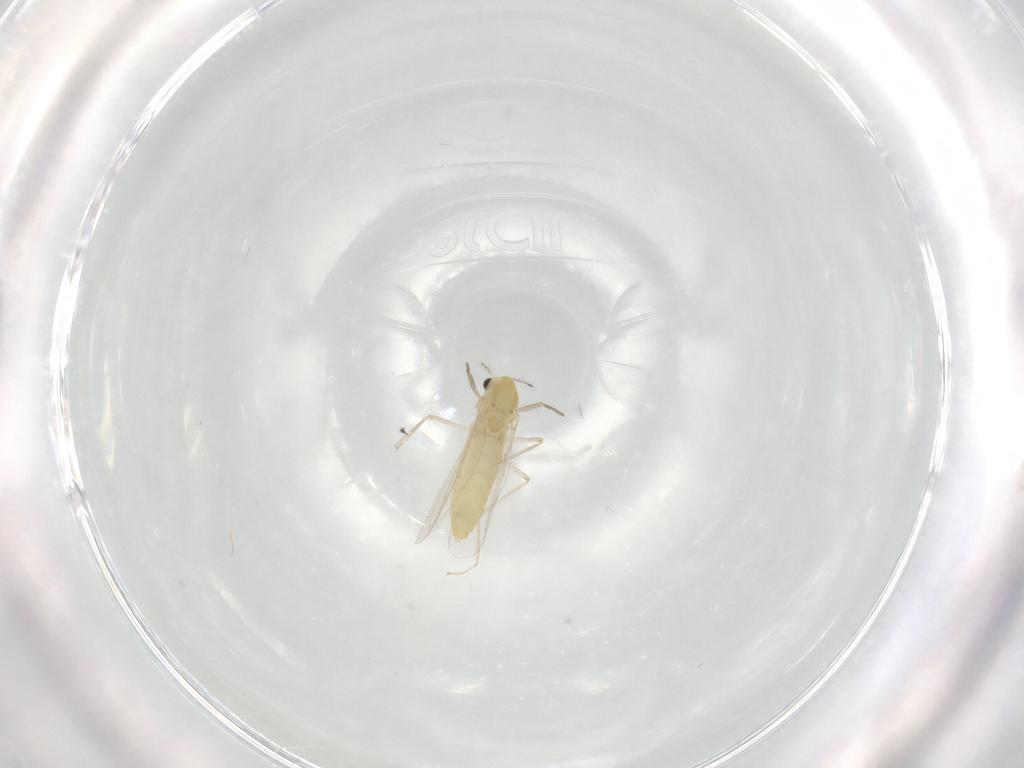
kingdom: Animalia
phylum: Arthropoda
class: Insecta
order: Diptera
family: Chironomidae
